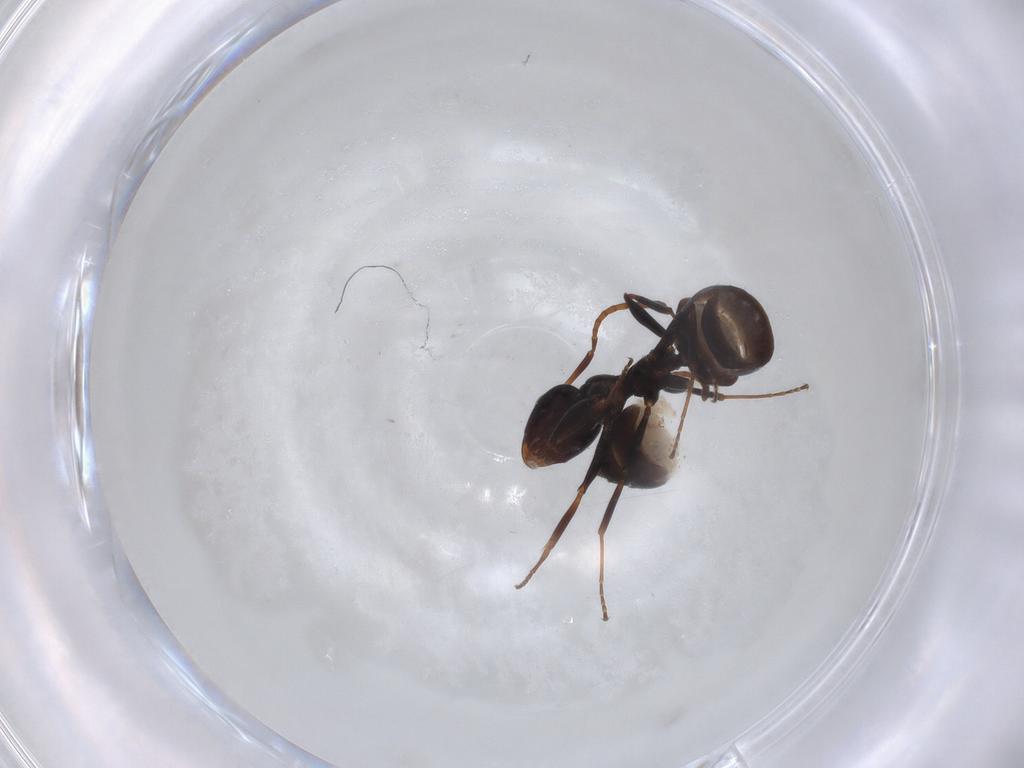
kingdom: Animalia
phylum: Arthropoda
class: Insecta
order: Hymenoptera
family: Formicidae
